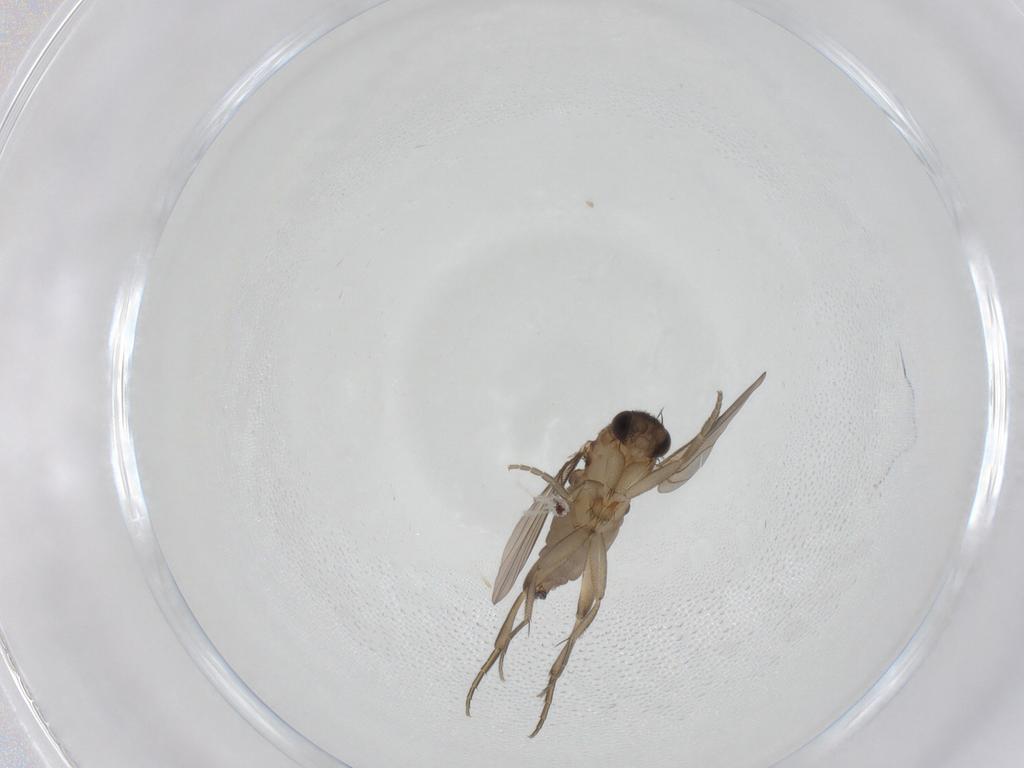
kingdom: Animalia
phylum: Arthropoda
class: Insecta
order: Diptera
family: Phoridae
